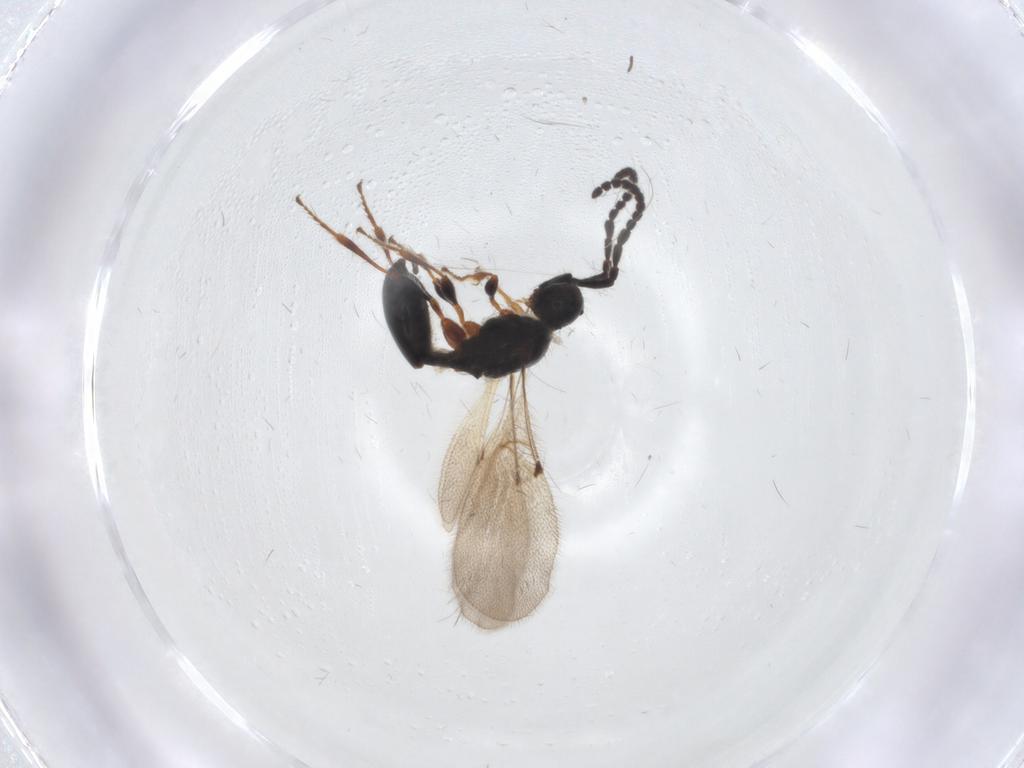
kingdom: Animalia
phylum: Arthropoda
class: Insecta
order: Hymenoptera
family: Diapriidae
